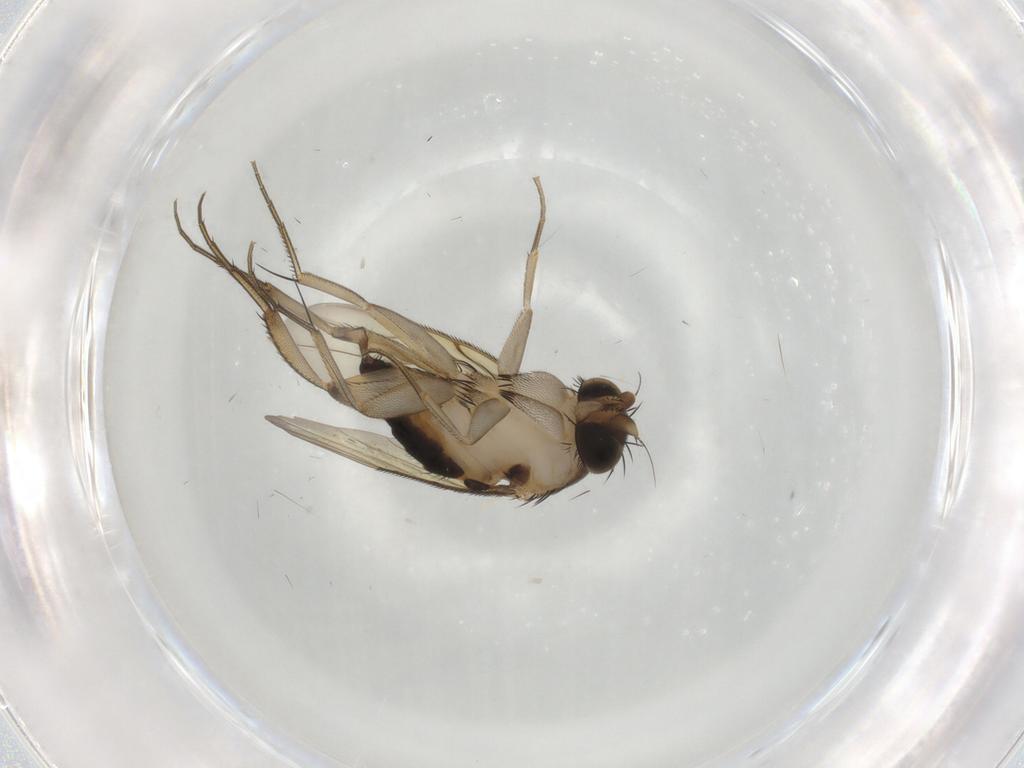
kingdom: Animalia
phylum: Arthropoda
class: Insecta
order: Diptera
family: Phoridae
